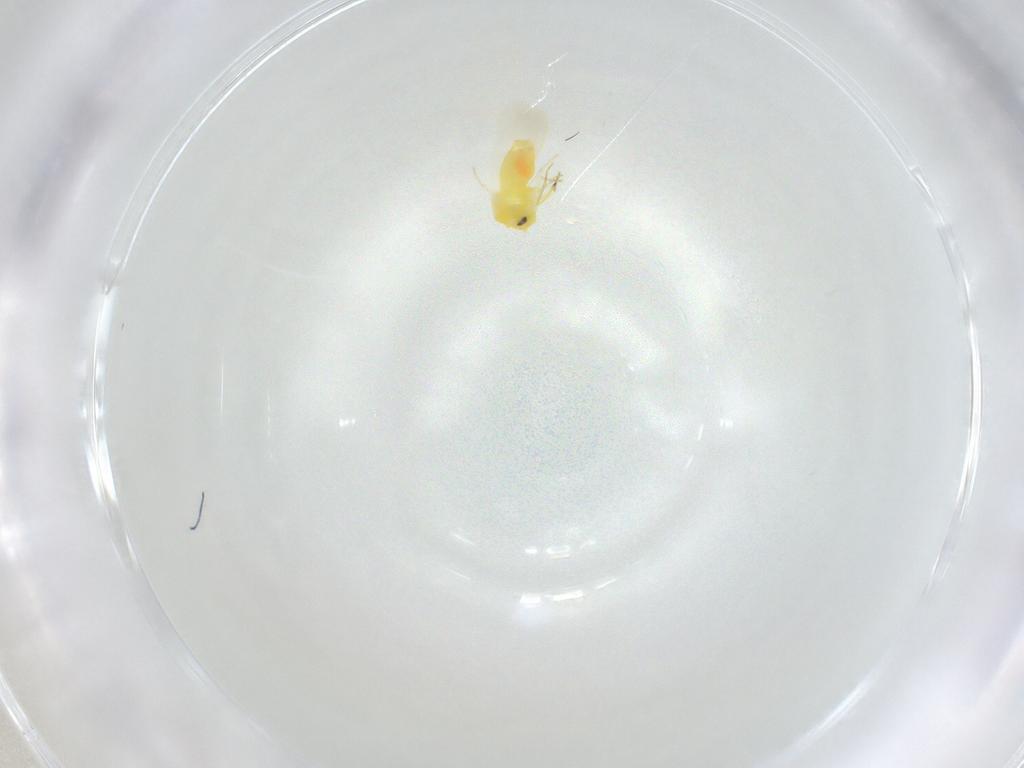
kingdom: Animalia
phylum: Arthropoda
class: Insecta
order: Hemiptera
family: Aleyrodidae
